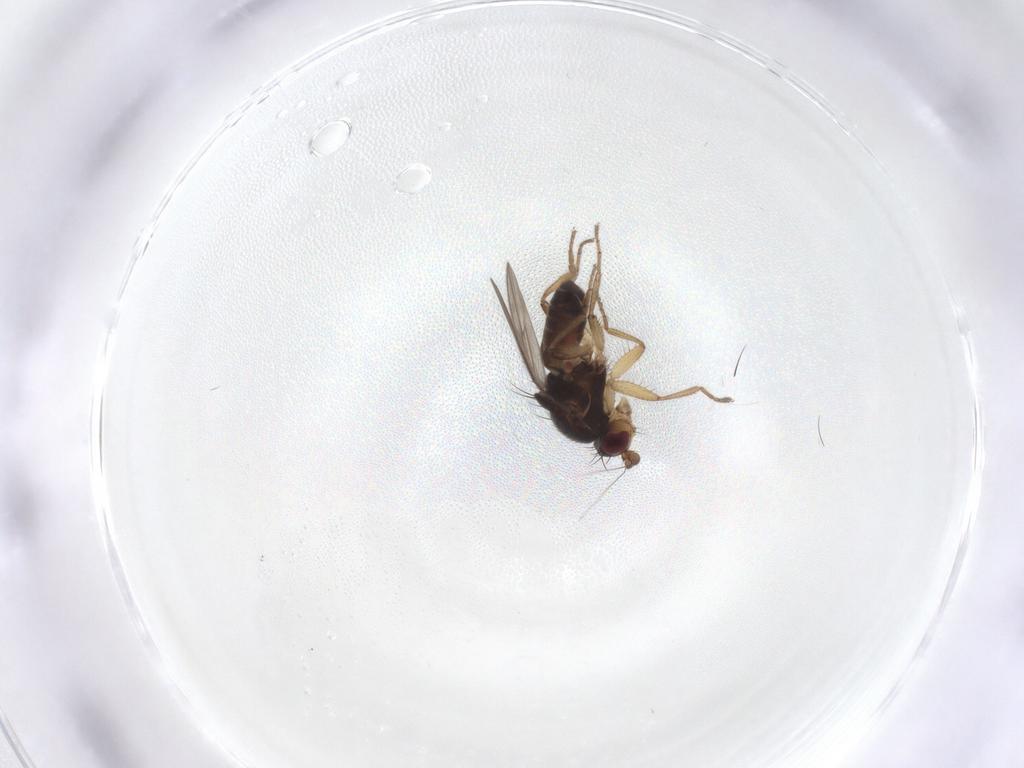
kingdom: Animalia
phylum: Arthropoda
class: Insecta
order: Diptera
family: Sphaeroceridae
